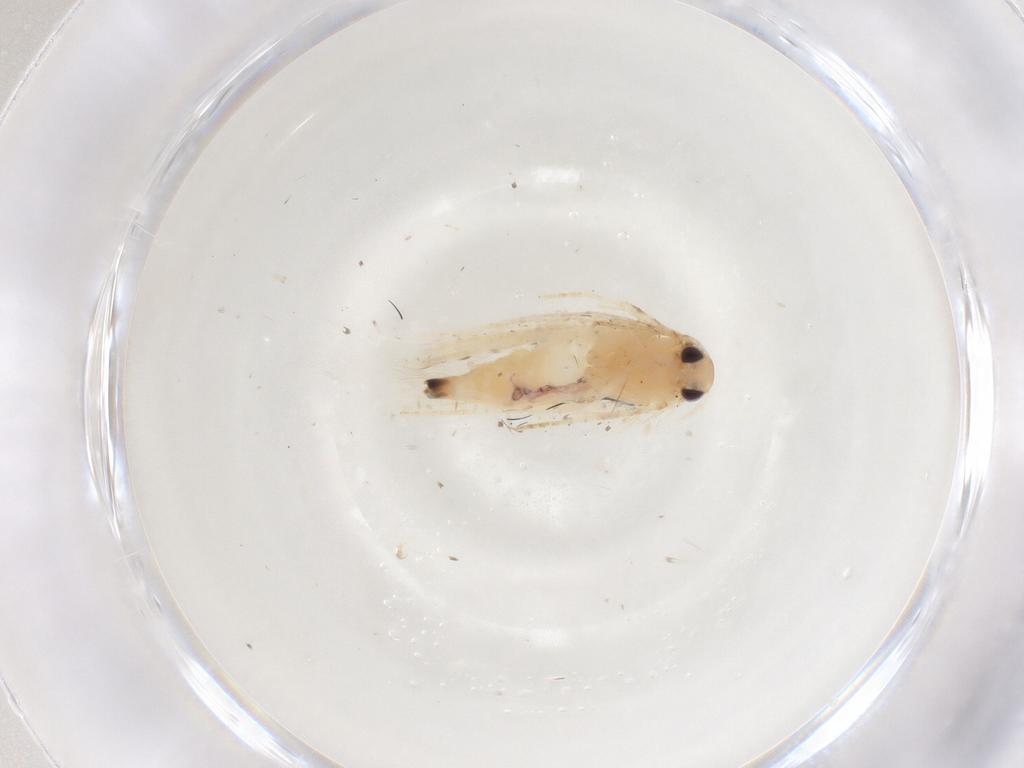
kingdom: Animalia
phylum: Arthropoda
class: Insecta
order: Lepidoptera
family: Gelechiidae
